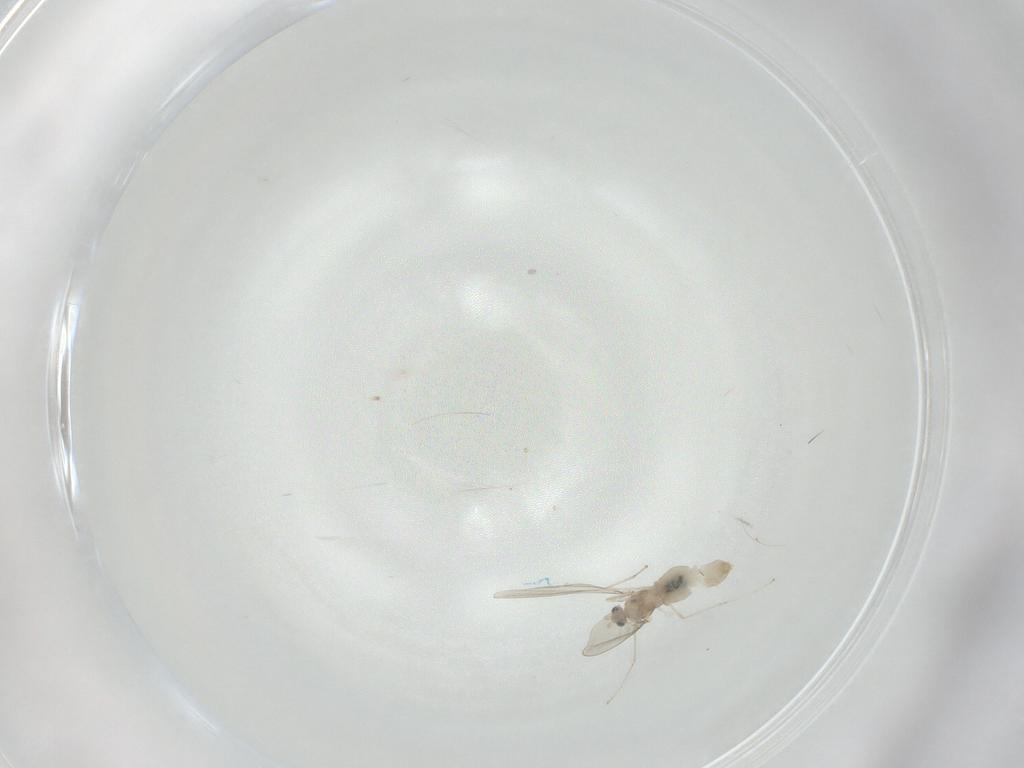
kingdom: Animalia
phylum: Arthropoda
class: Insecta
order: Diptera
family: Cecidomyiidae
